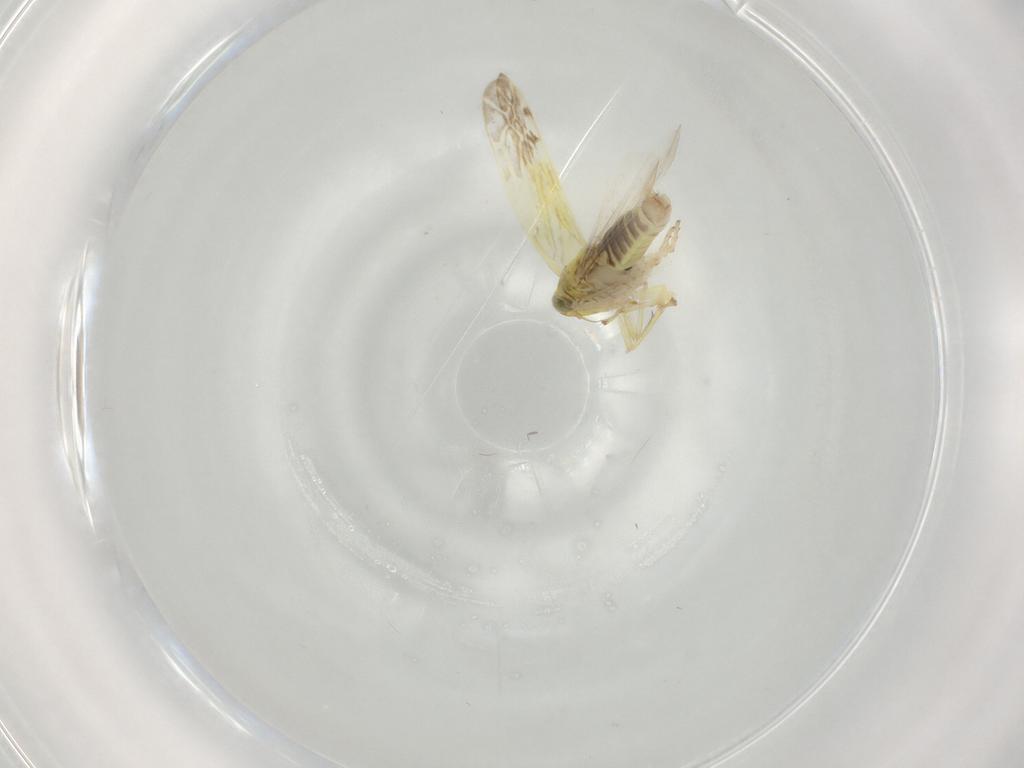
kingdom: Animalia
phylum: Arthropoda
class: Insecta
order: Hemiptera
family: Cicadellidae
